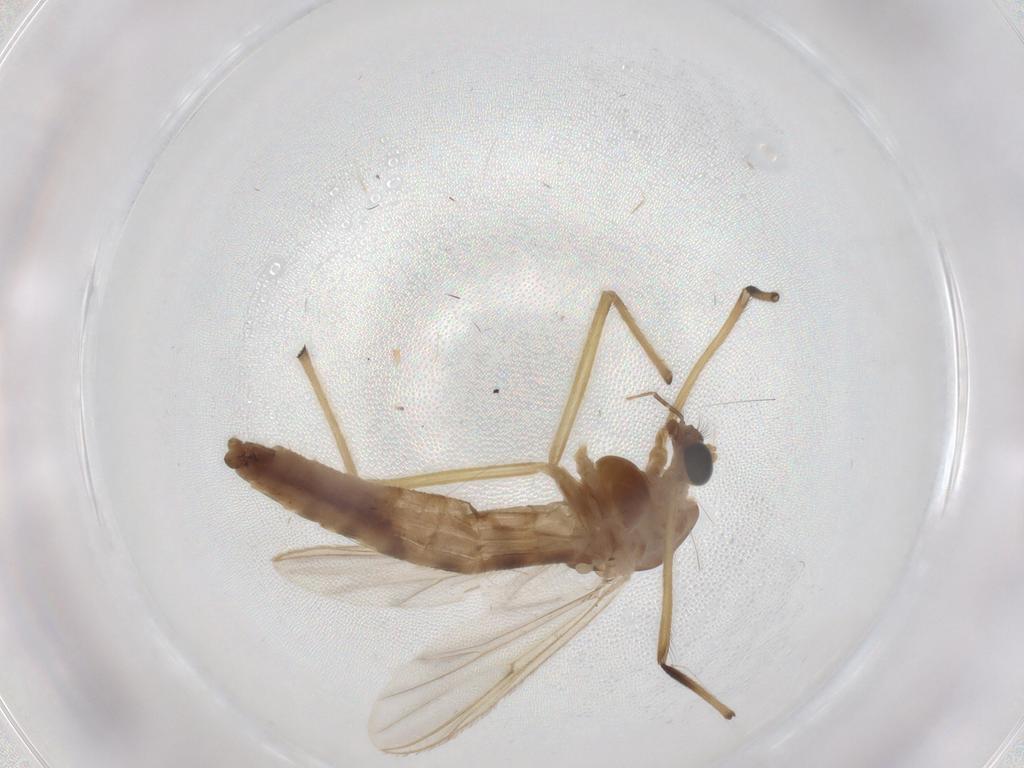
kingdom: Animalia
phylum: Arthropoda
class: Insecta
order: Diptera
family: Chironomidae
